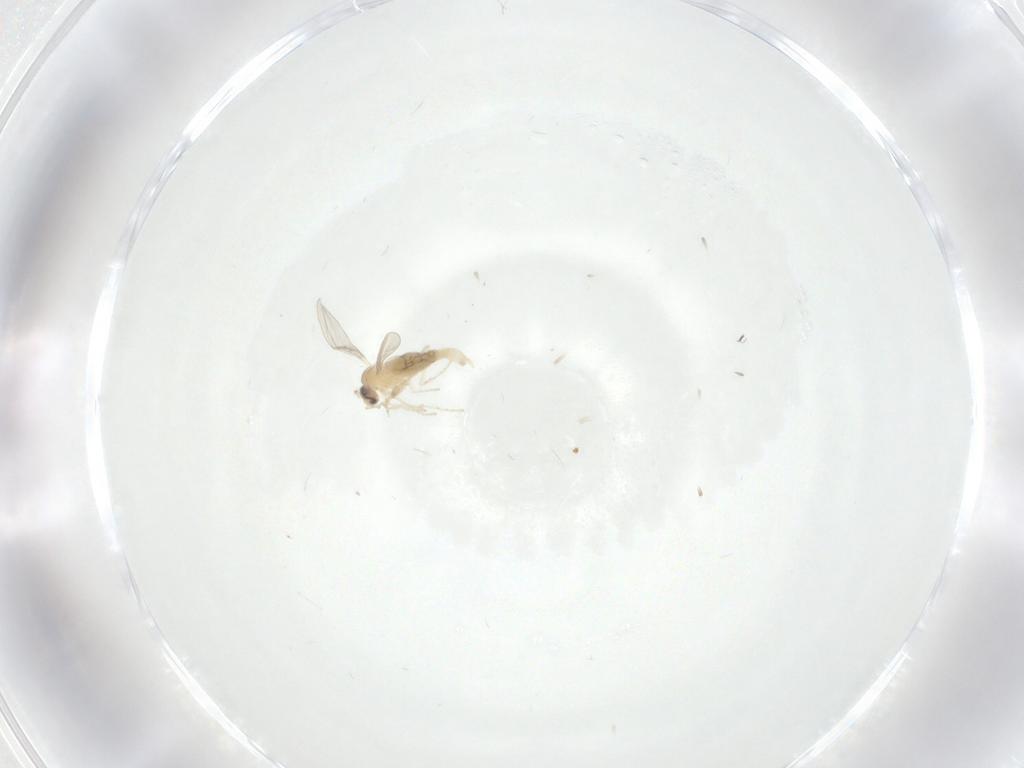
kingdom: Animalia
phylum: Arthropoda
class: Insecta
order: Diptera
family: Cecidomyiidae
